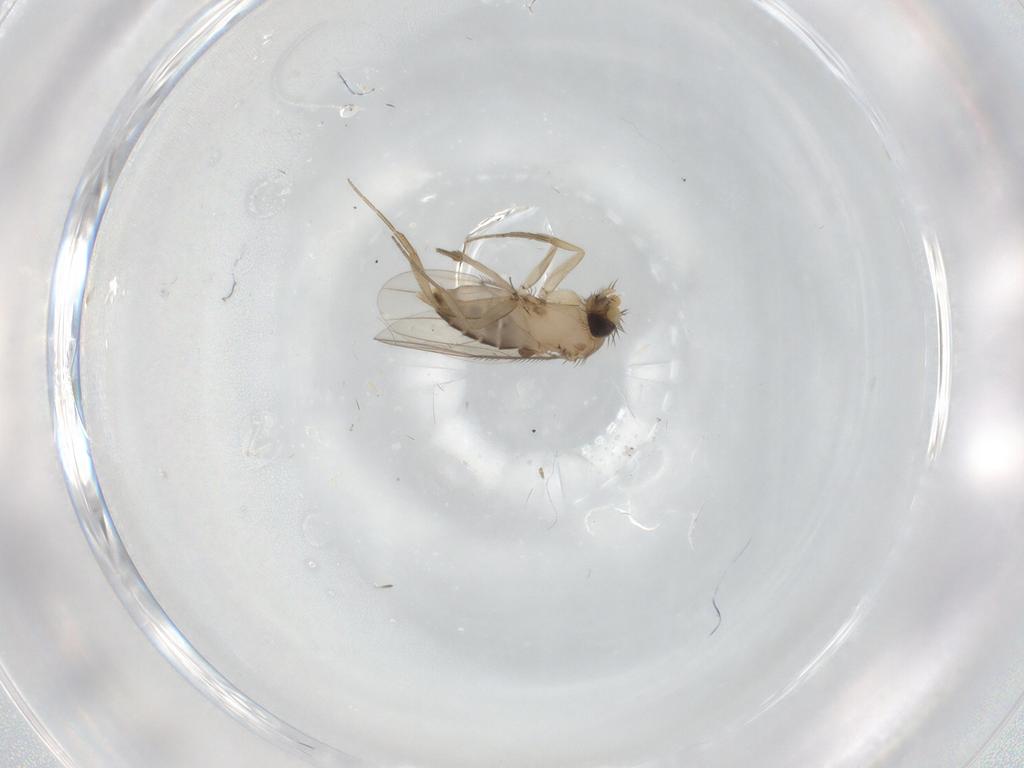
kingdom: Animalia
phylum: Arthropoda
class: Insecta
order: Diptera
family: Phoridae
